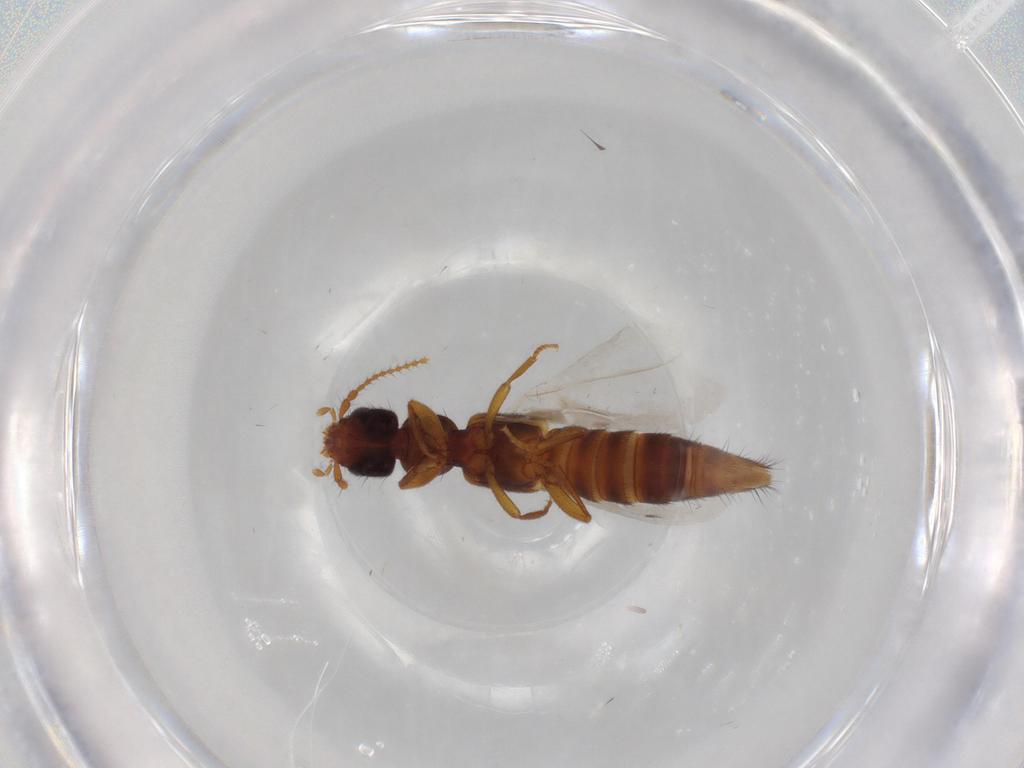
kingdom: Animalia
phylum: Arthropoda
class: Insecta
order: Coleoptera
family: Staphylinidae
